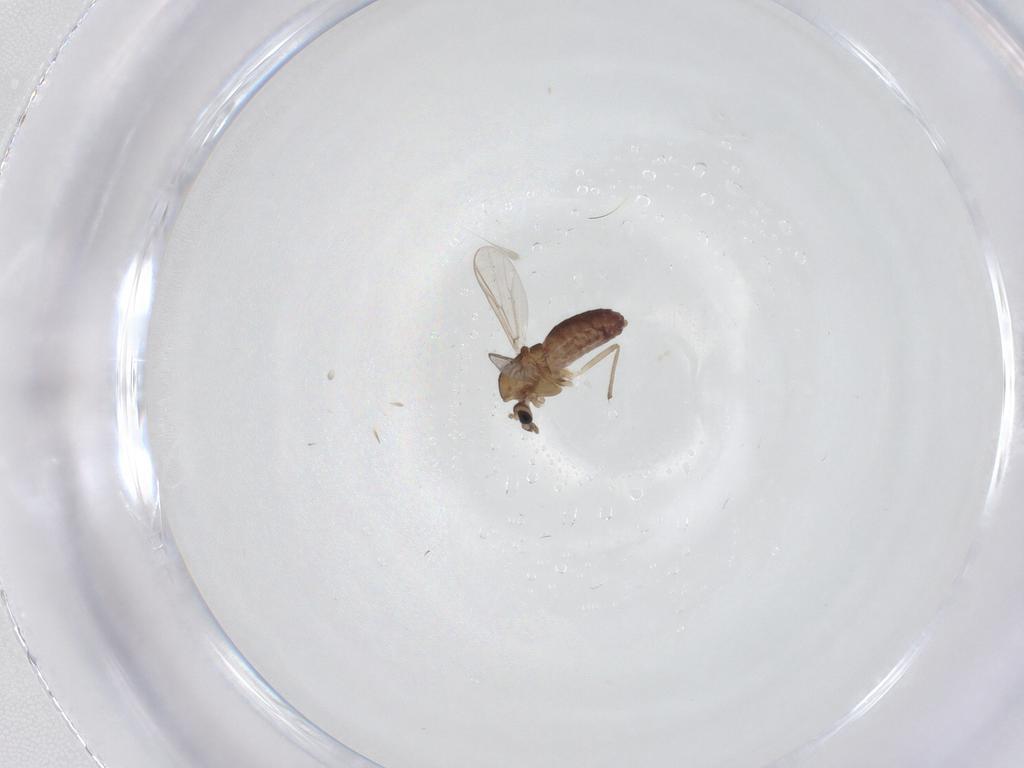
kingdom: Animalia
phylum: Arthropoda
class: Insecta
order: Diptera
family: Chironomidae
